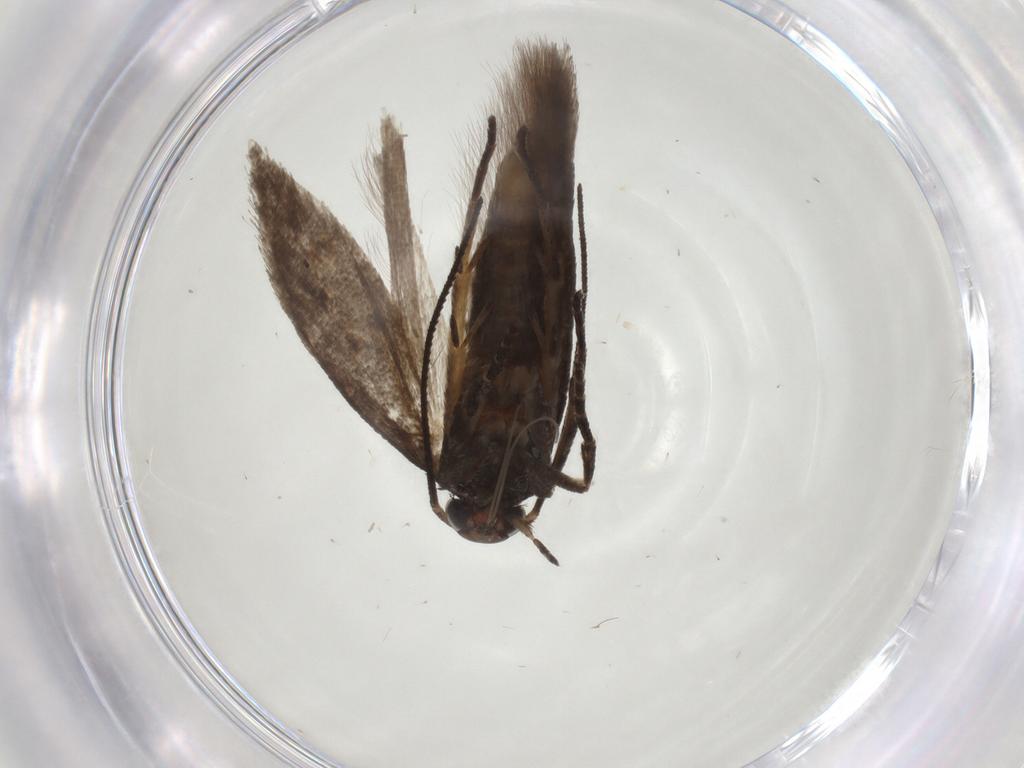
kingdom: Animalia
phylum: Arthropoda
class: Insecta
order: Lepidoptera
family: Gelechiidae
